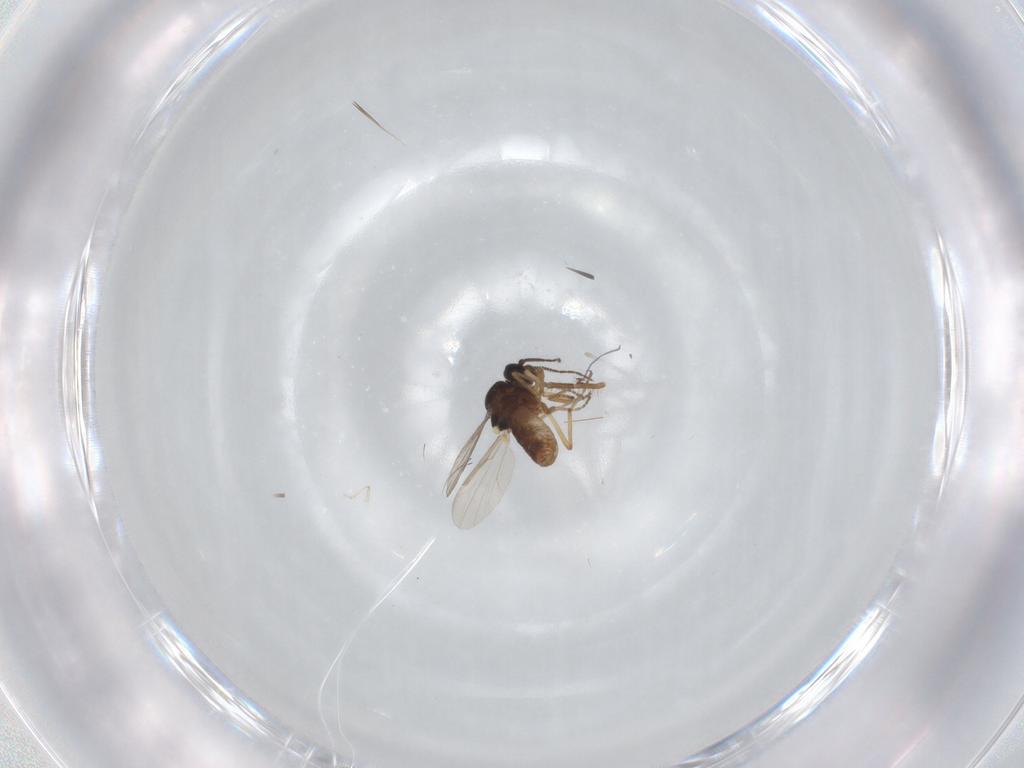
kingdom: Animalia
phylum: Arthropoda
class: Insecta
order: Diptera
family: Ceratopogonidae
